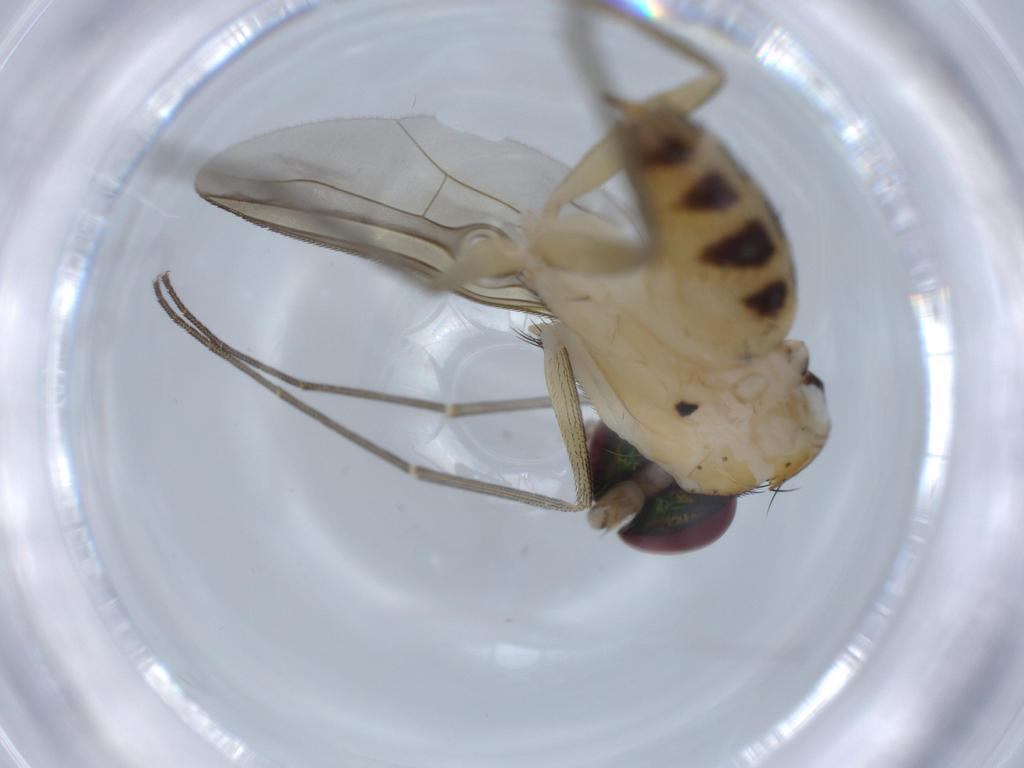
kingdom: Animalia
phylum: Arthropoda
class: Insecta
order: Diptera
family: Dolichopodidae
